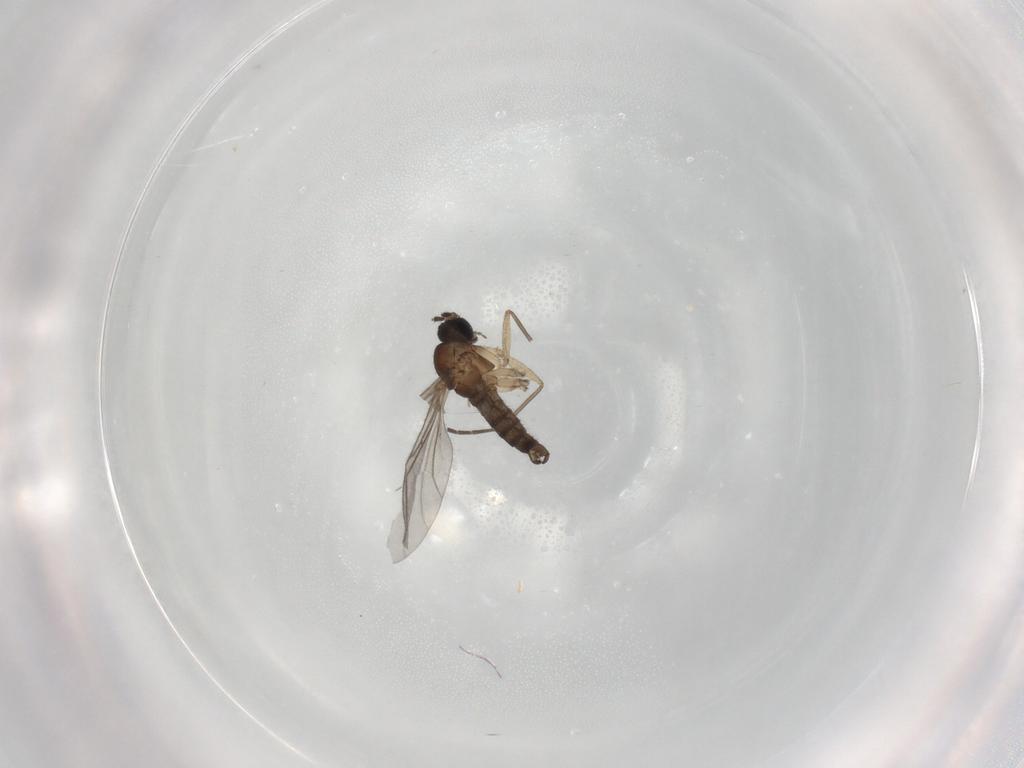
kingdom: Animalia
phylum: Arthropoda
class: Insecta
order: Diptera
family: Sciaridae
